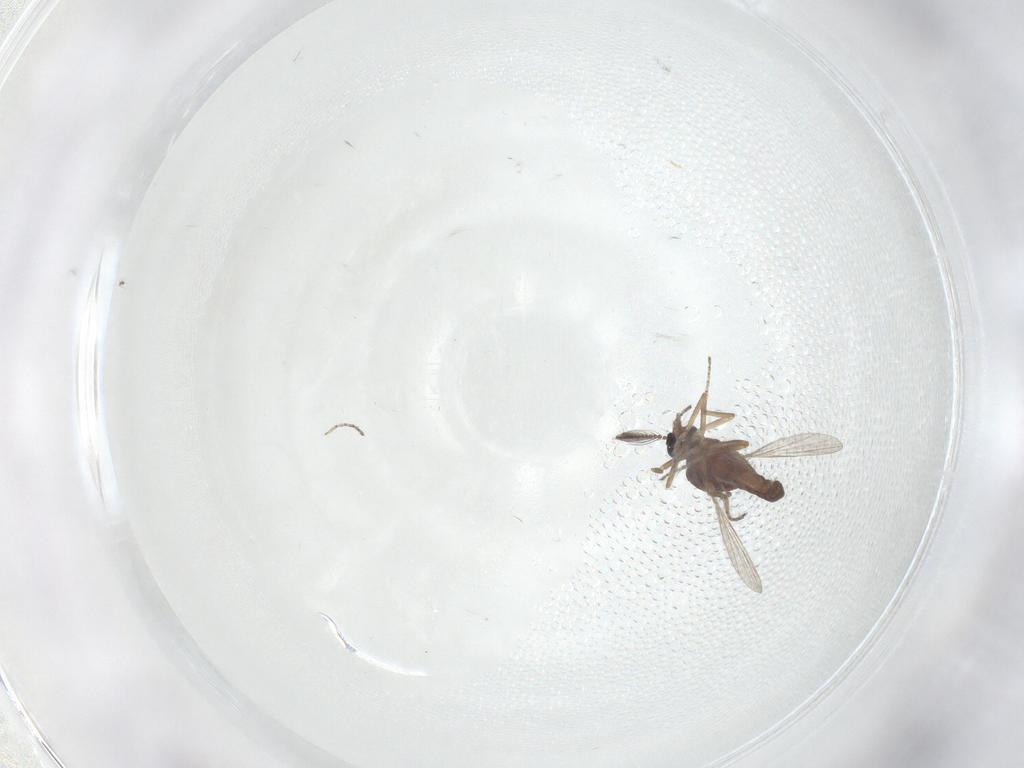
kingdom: Animalia
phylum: Arthropoda
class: Insecta
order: Diptera
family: Ceratopogonidae
